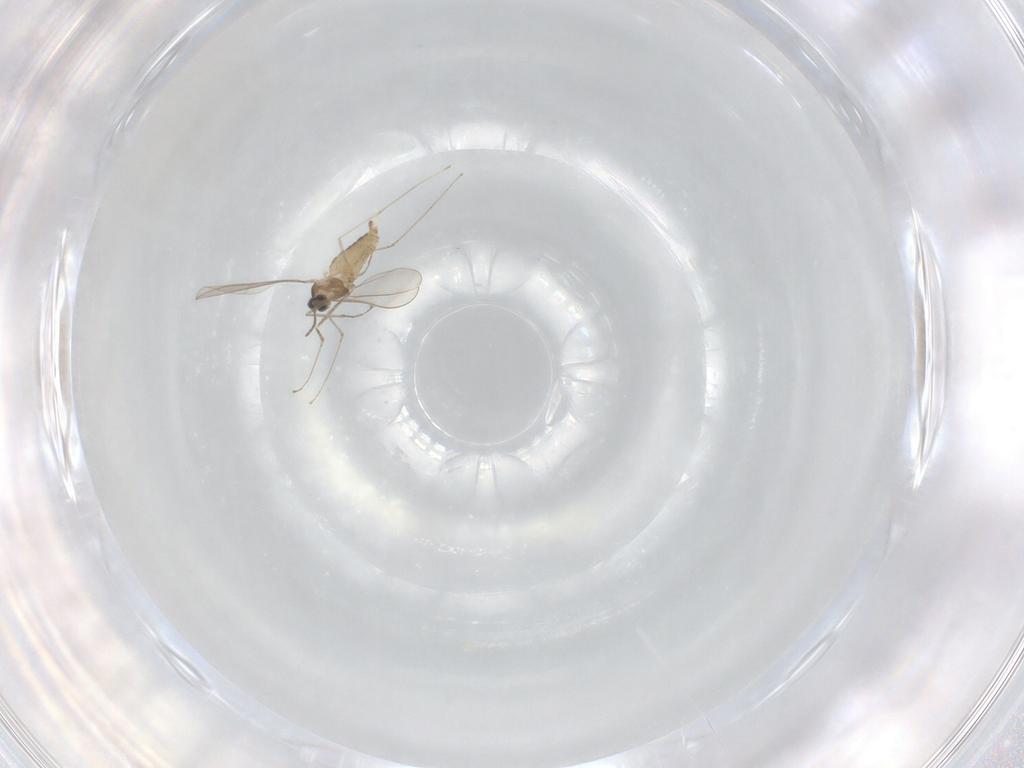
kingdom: Animalia
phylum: Arthropoda
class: Insecta
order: Diptera
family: Cecidomyiidae
